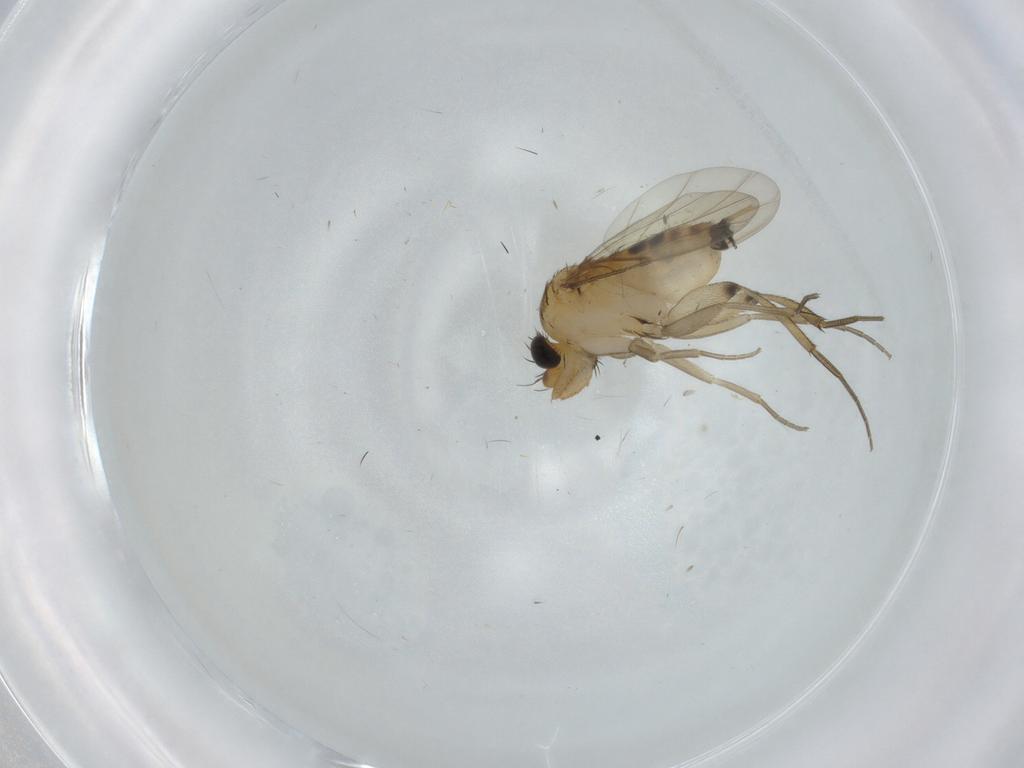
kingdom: Animalia
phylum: Arthropoda
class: Insecta
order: Diptera
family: Phoridae
